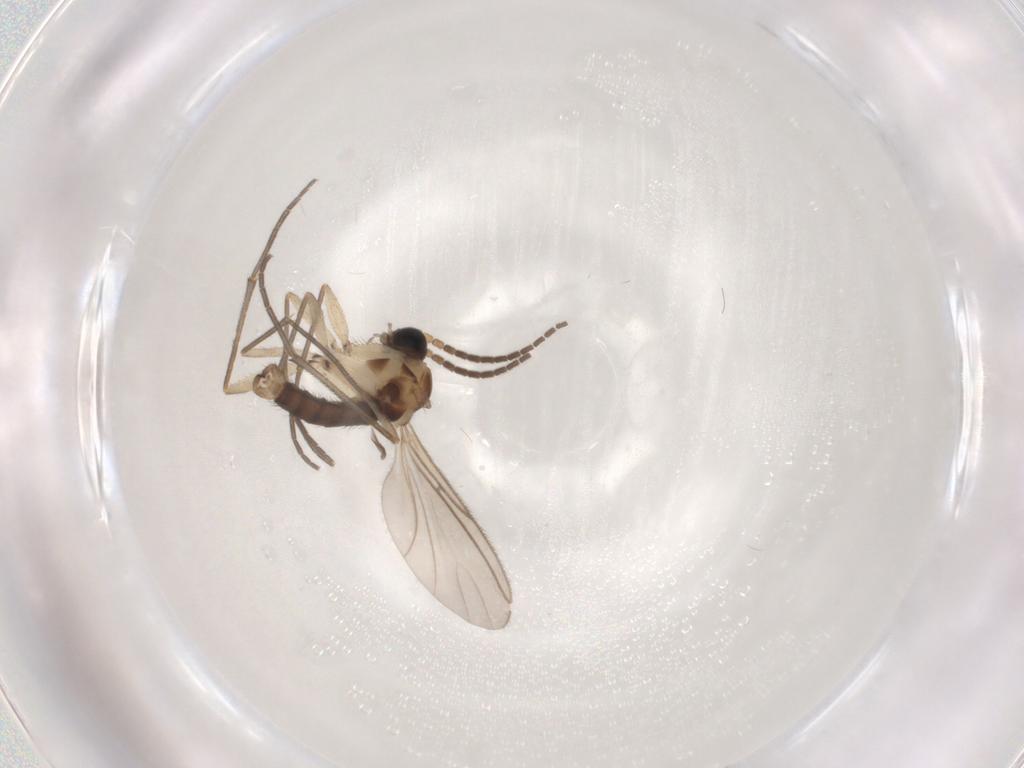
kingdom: Animalia
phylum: Arthropoda
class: Insecta
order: Diptera
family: Sciaridae
